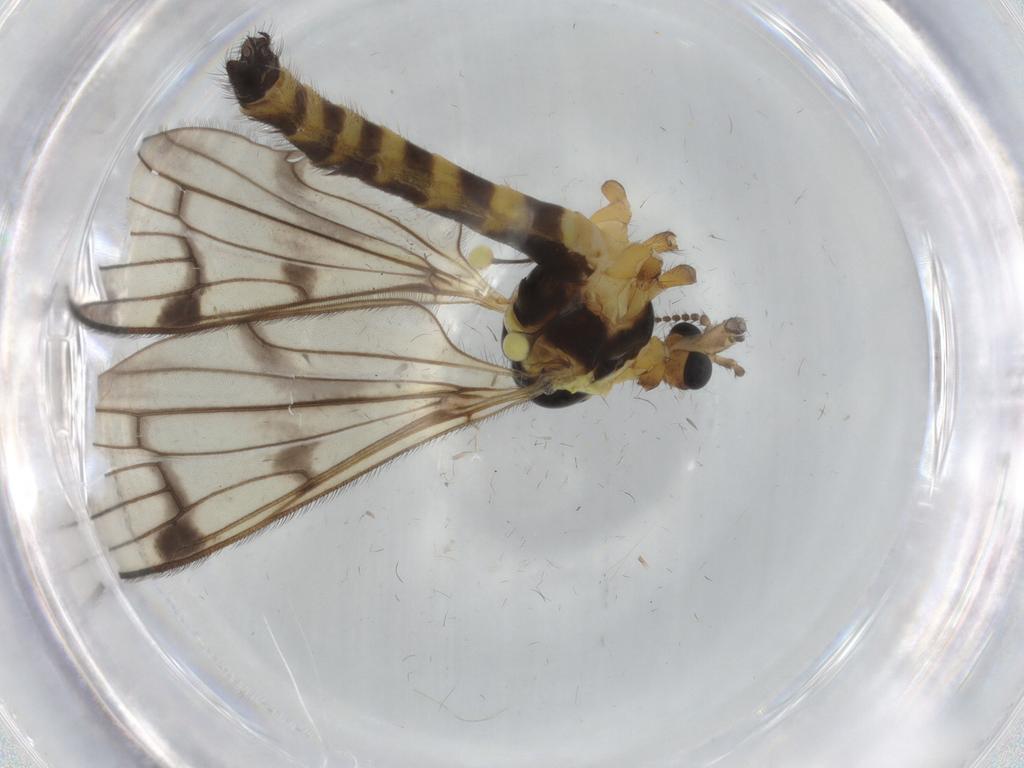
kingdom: Animalia
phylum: Arthropoda
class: Insecta
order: Diptera
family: Limoniidae
